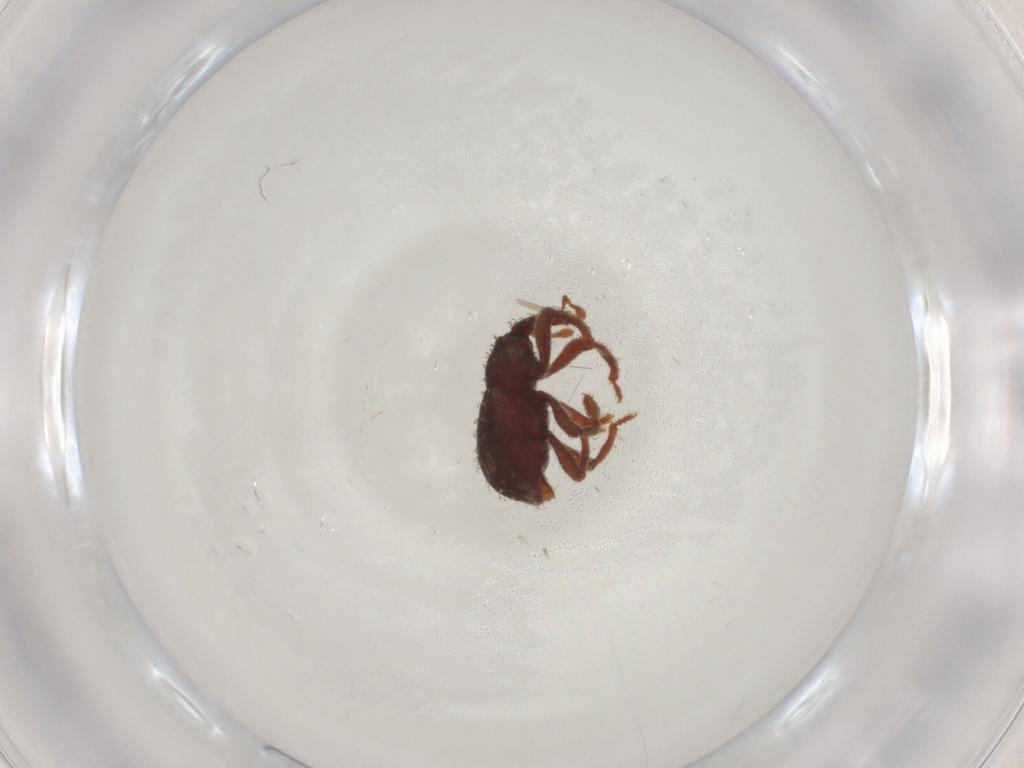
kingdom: Animalia
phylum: Arthropoda
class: Insecta
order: Coleoptera
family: Curculionidae
